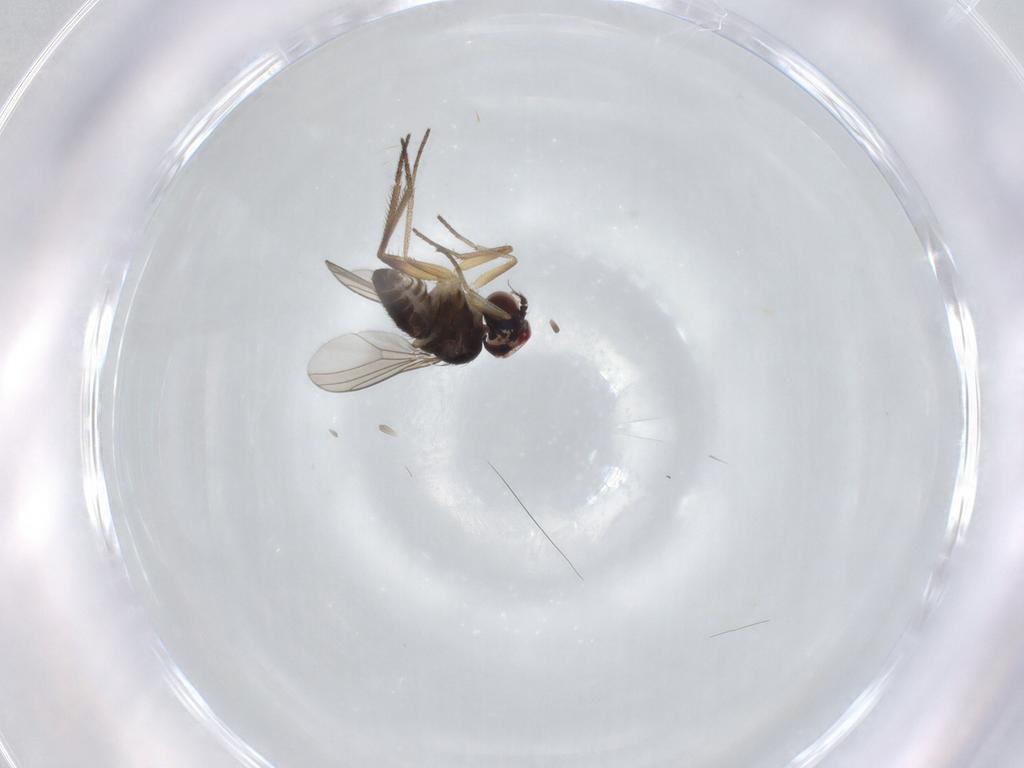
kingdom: Animalia
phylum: Arthropoda
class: Insecta
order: Diptera
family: Dolichopodidae
